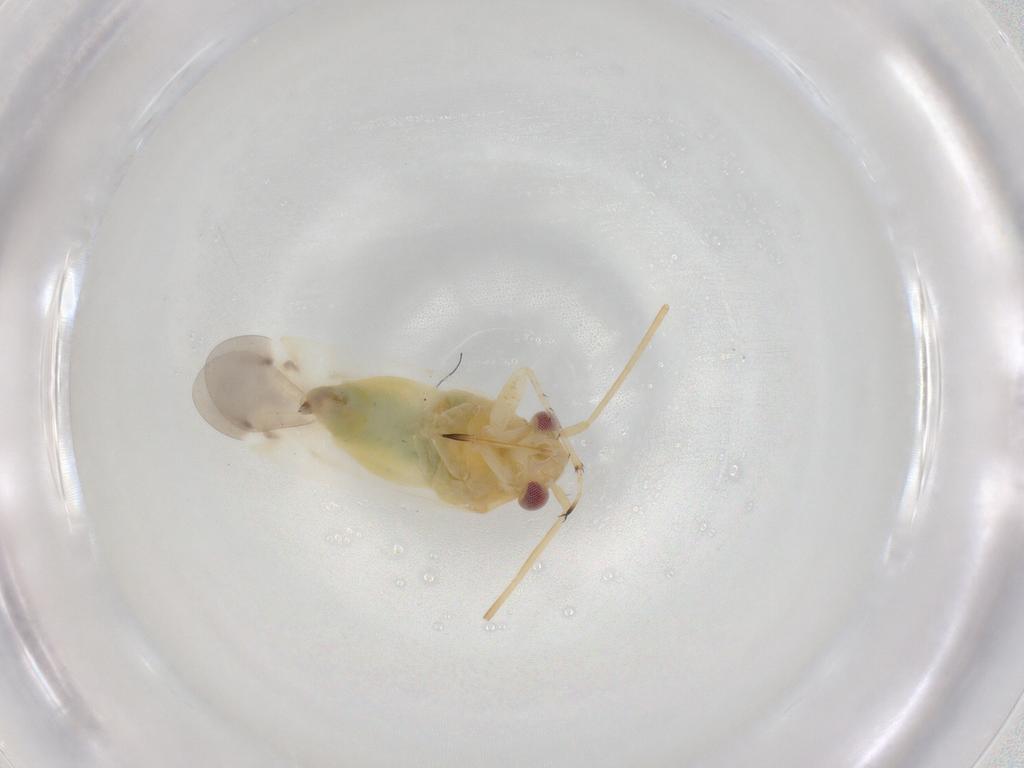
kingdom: Animalia
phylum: Arthropoda
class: Insecta
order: Hemiptera
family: Miridae
